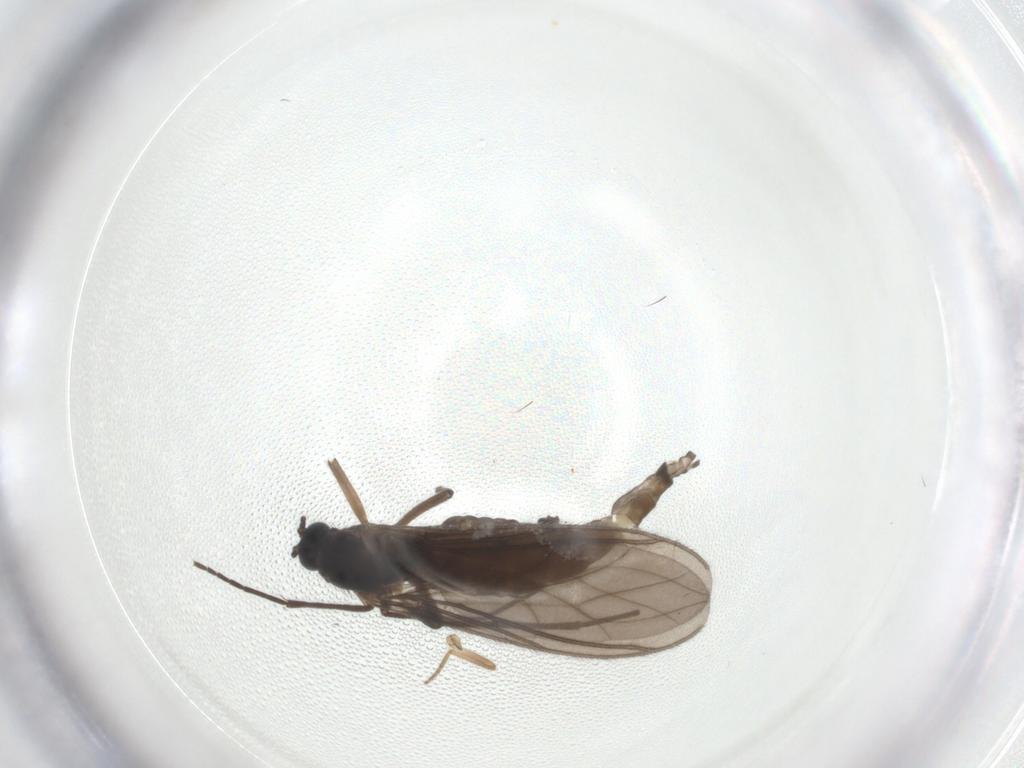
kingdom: Animalia
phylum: Arthropoda
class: Insecta
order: Diptera
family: Sciaridae
